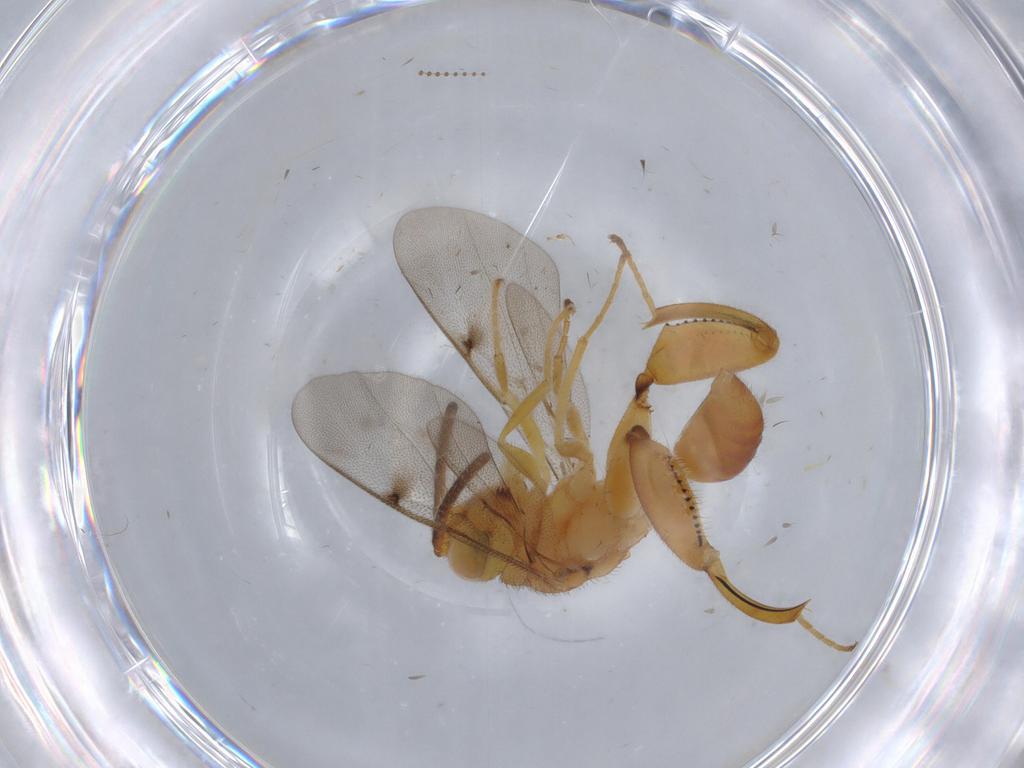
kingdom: Animalia
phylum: Arthropoda
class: Insecta
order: Hymenoptera
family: Chalcididae
